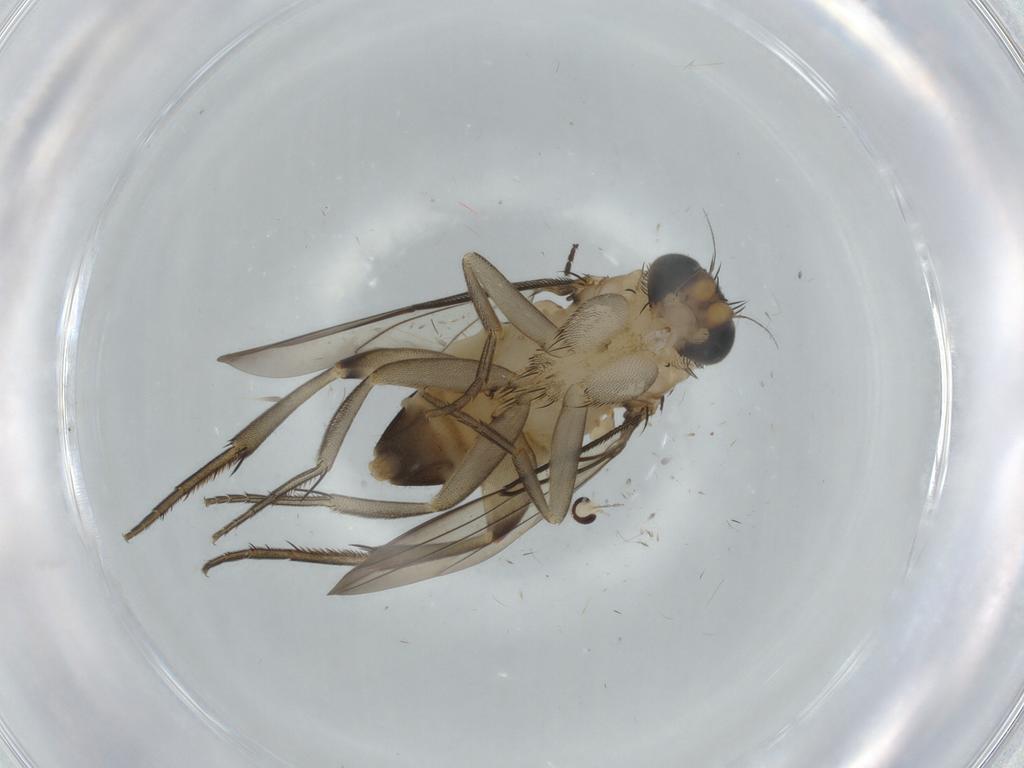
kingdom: Animalia
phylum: Arthropoda
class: Insecta
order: Diptera
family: Sciaridae
